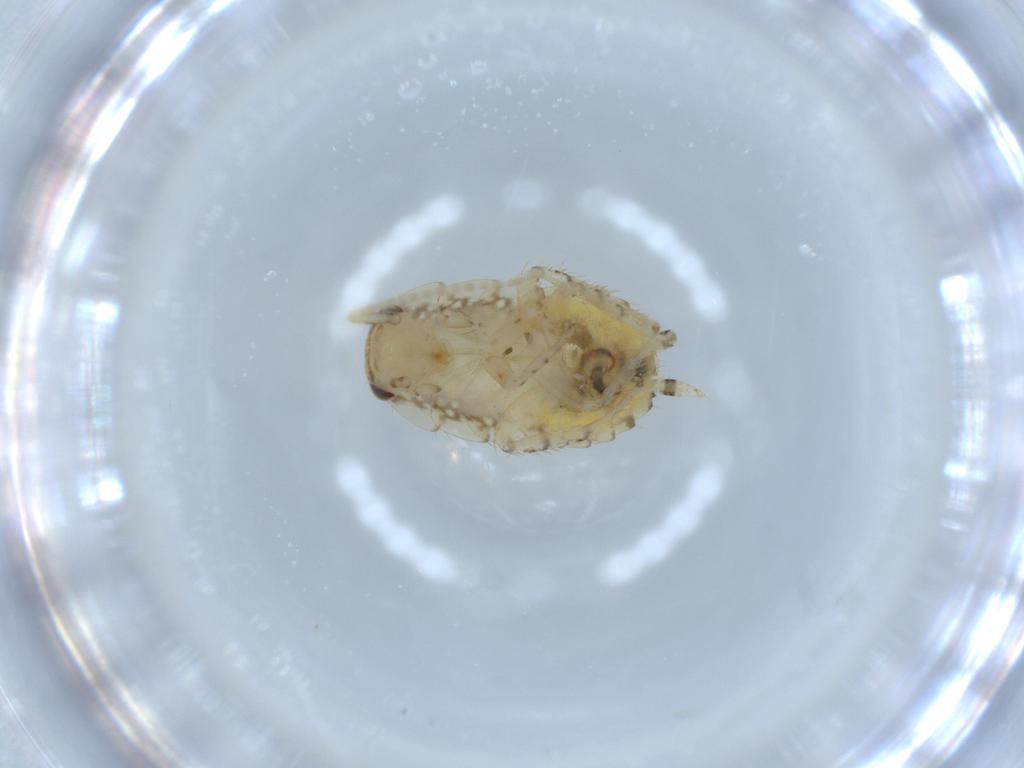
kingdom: Animalia
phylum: Arthropoda
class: Insecta
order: Blattodea
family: Ectobiidae
